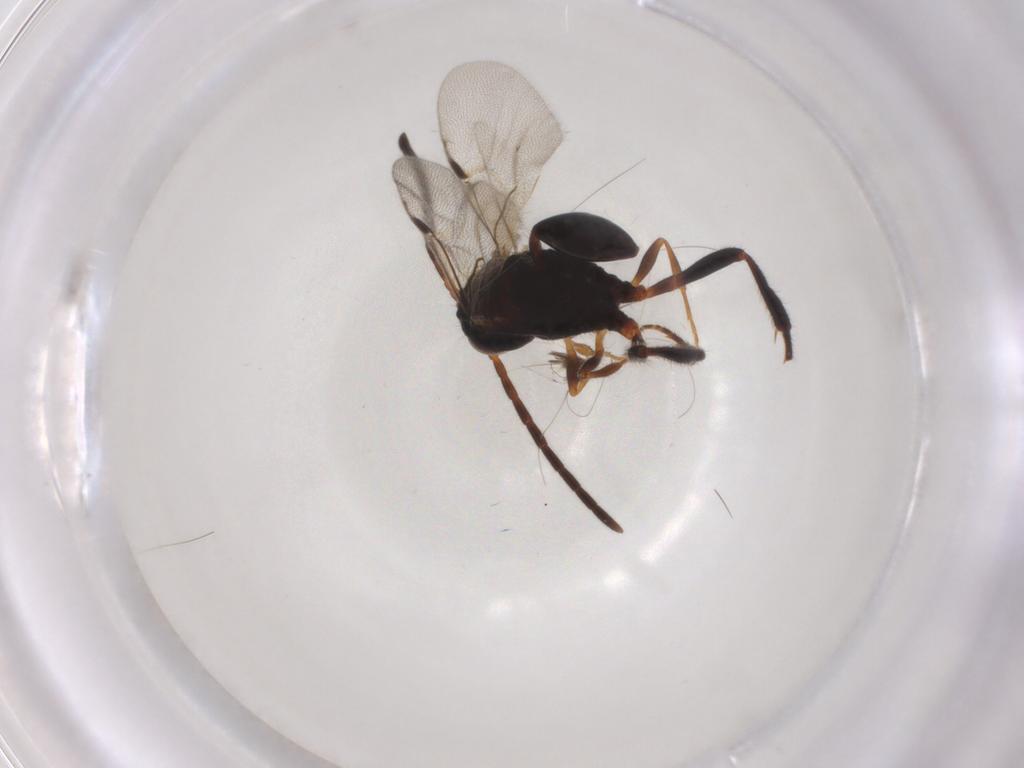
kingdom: Animalia
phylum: Arthropoda
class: Insecta
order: Hymenoptera
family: Evaniidae
